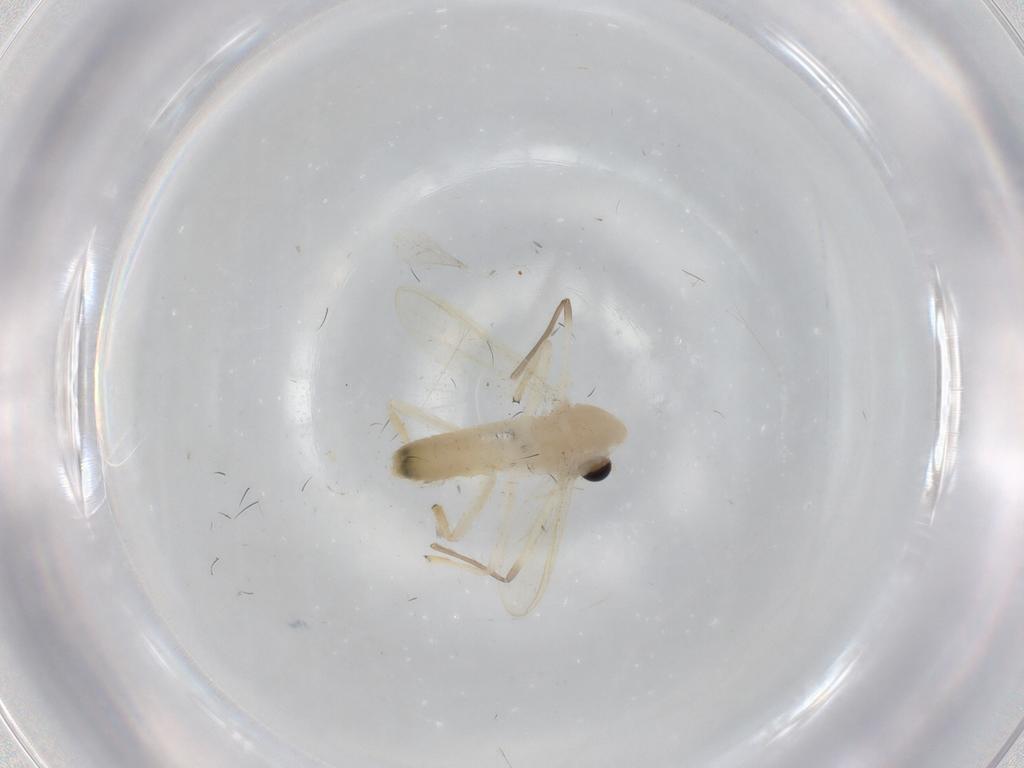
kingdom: Animalia
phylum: Arthropoda
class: Insecta
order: Diptera
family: Chironomidae
